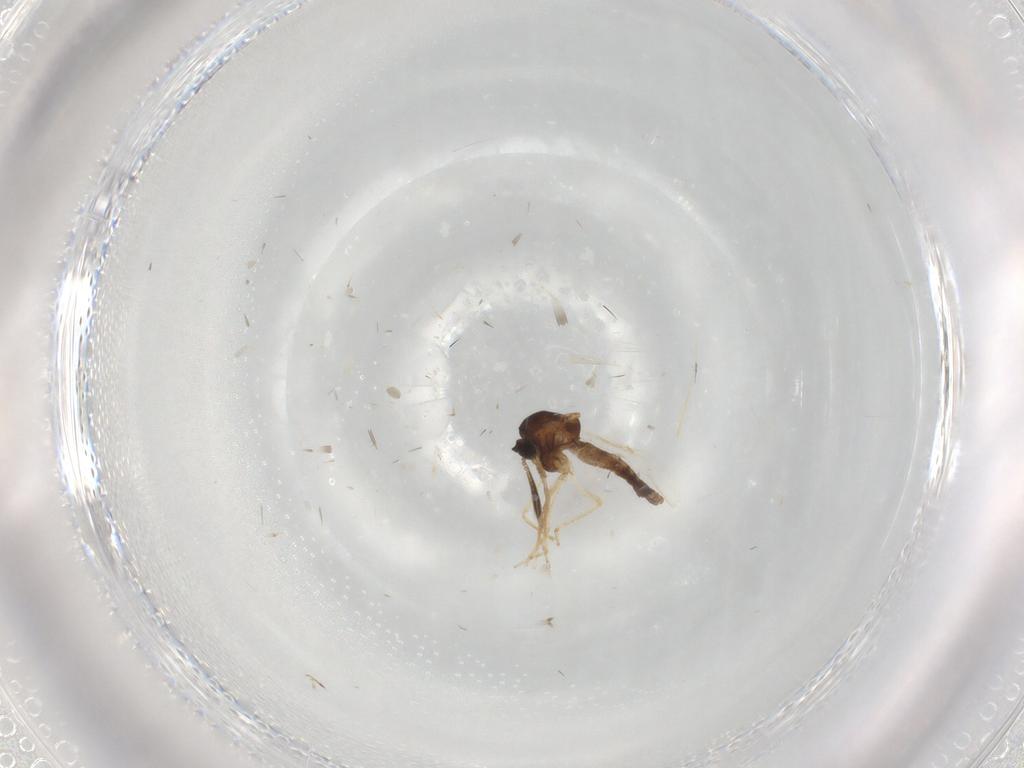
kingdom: Animalia
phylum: Arthropoda
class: Insecta
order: Diptera
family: Cecidomyiidae
